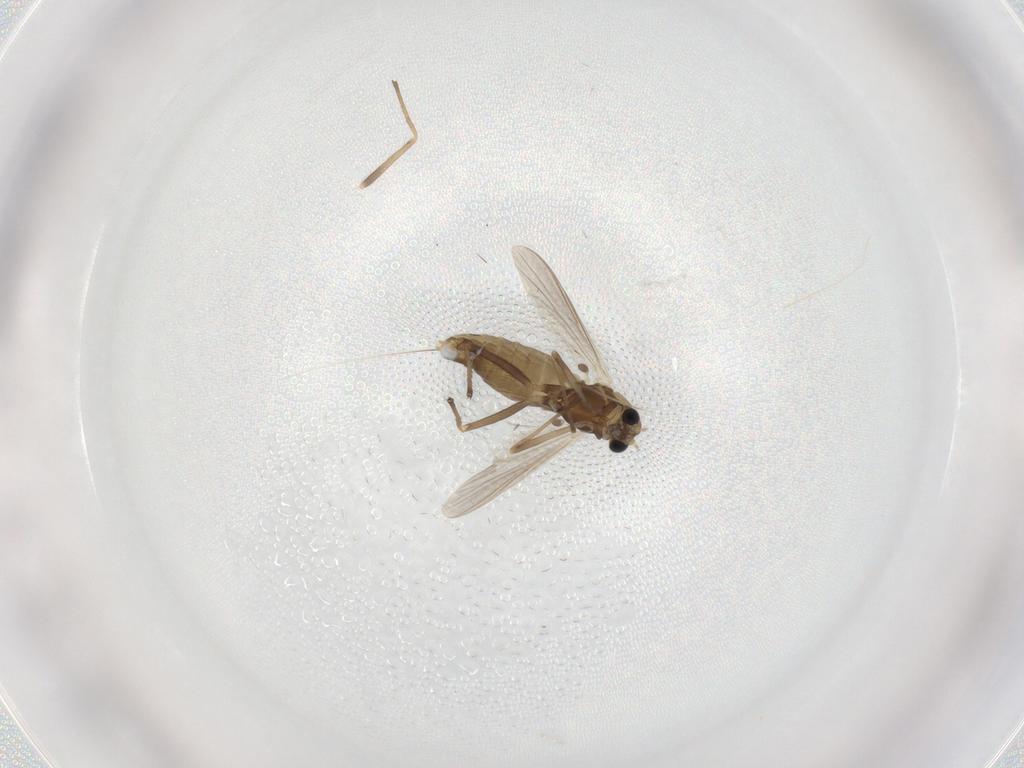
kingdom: Animalia
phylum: Arthropoda
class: Insecta
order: Diptera
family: Chironomidae
